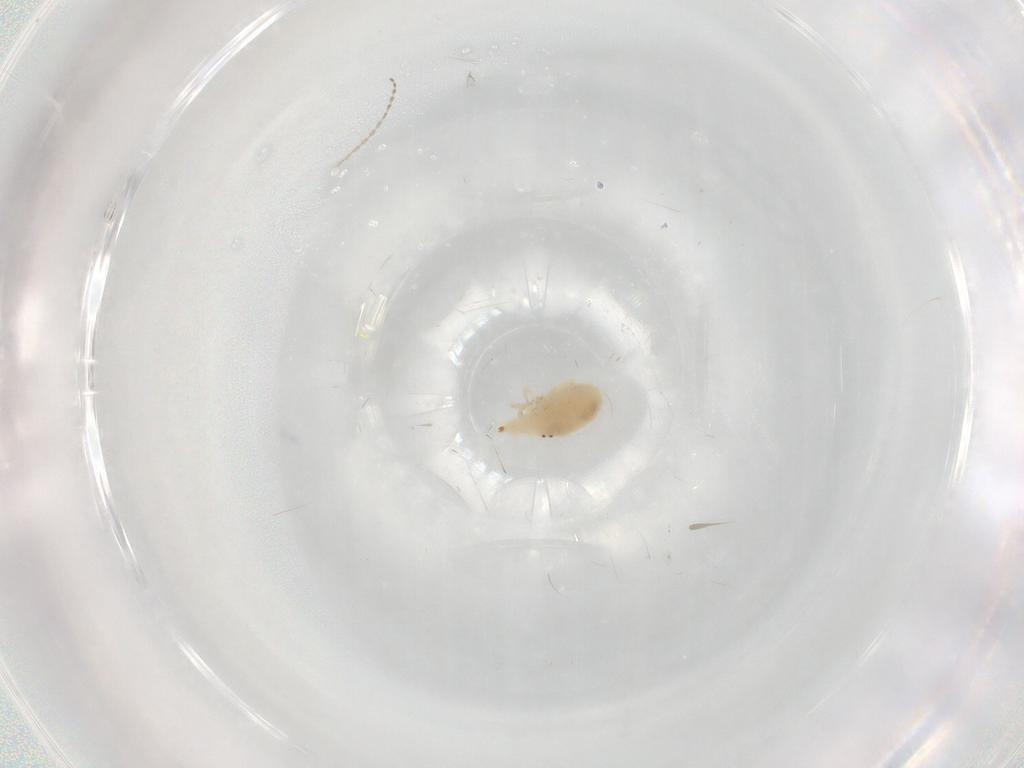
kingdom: Animalia
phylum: Arthropoda
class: Arachnida
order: Trombidiformes
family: Bdellidae
